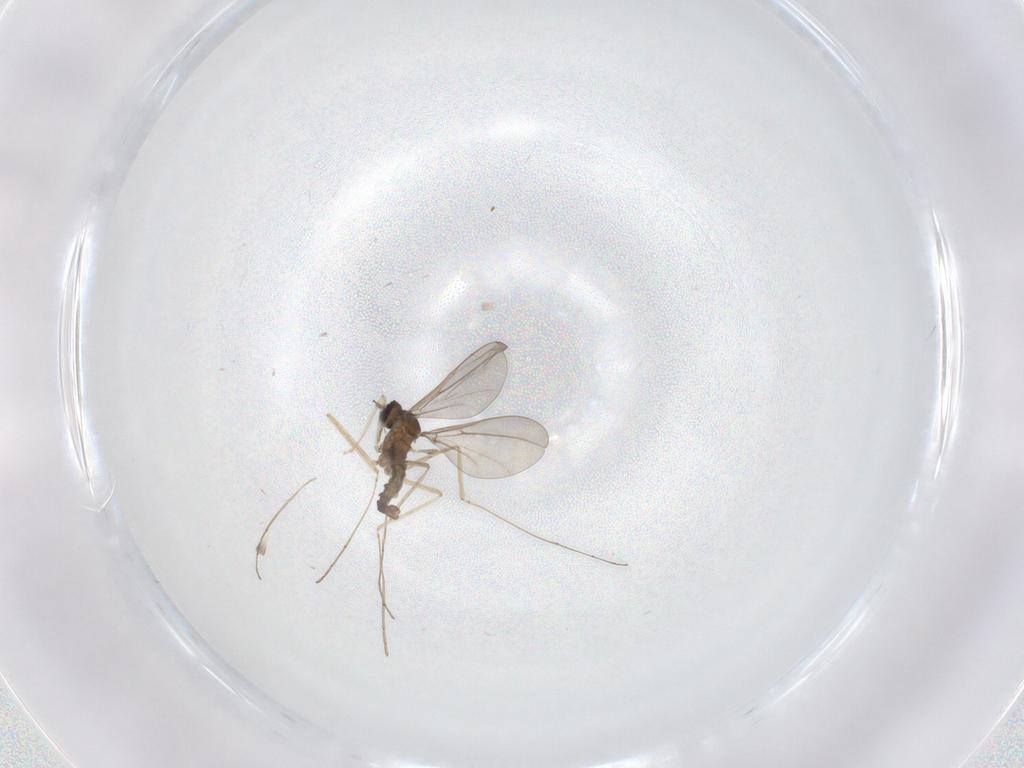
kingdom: Animalia
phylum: Arthropoda
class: Insecta
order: Diptera
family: Cecidomyiidae
